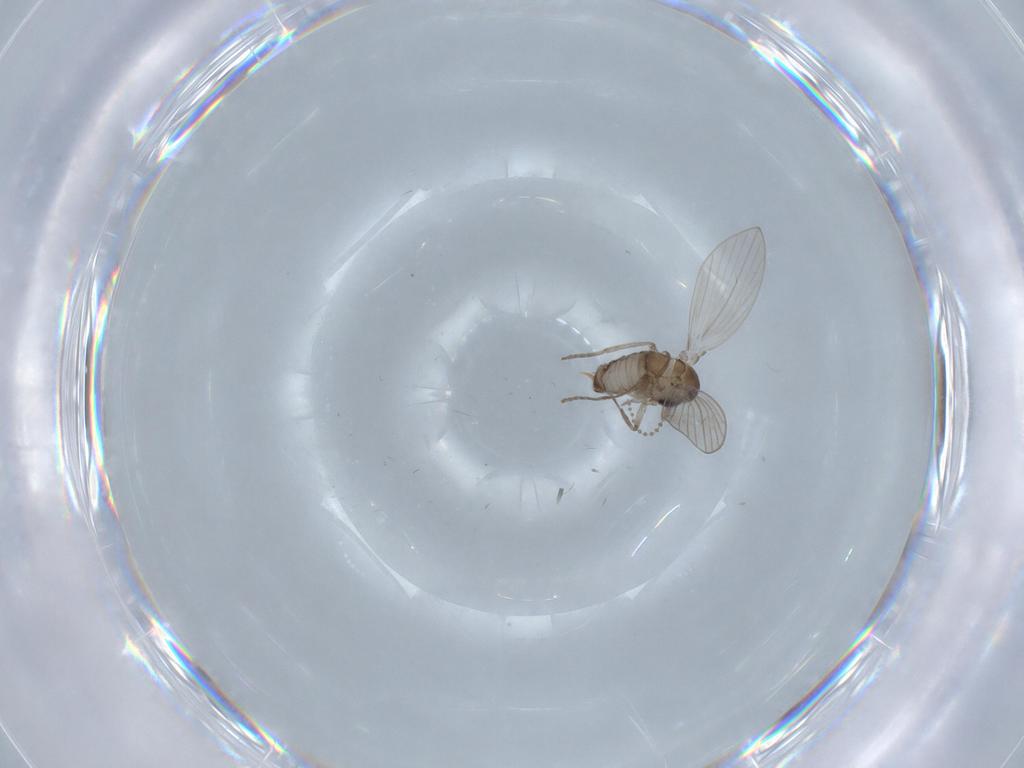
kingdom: Animalia
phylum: Arthropoda
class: Insecta
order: Diptera
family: Psychodidae
